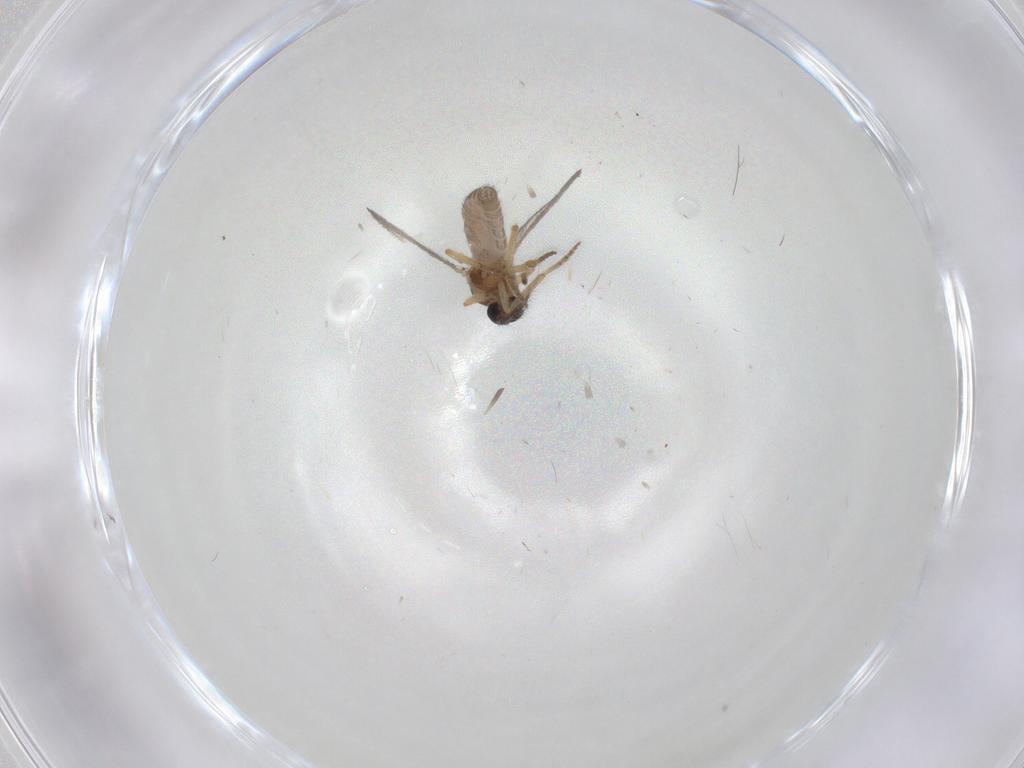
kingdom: Animalia
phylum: Arthropoda
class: Insecta
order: Diptera
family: Ceratopogonidae
